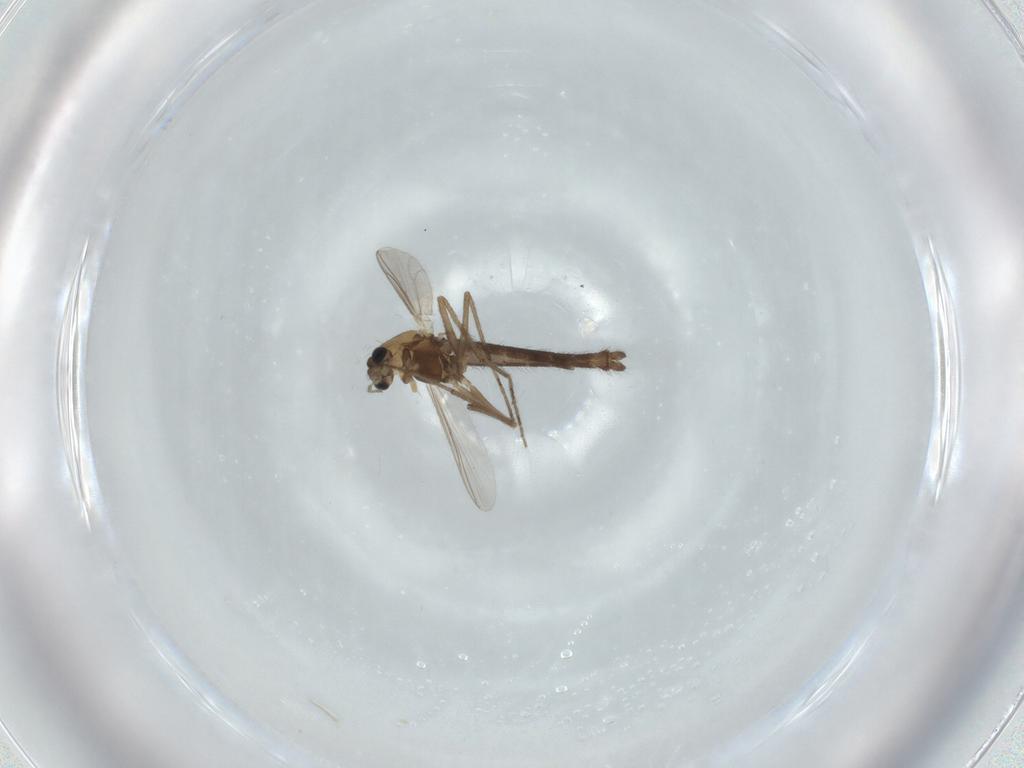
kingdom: Animalia
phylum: Arthropoda
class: Insecta
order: Diptera
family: Chironomidae
